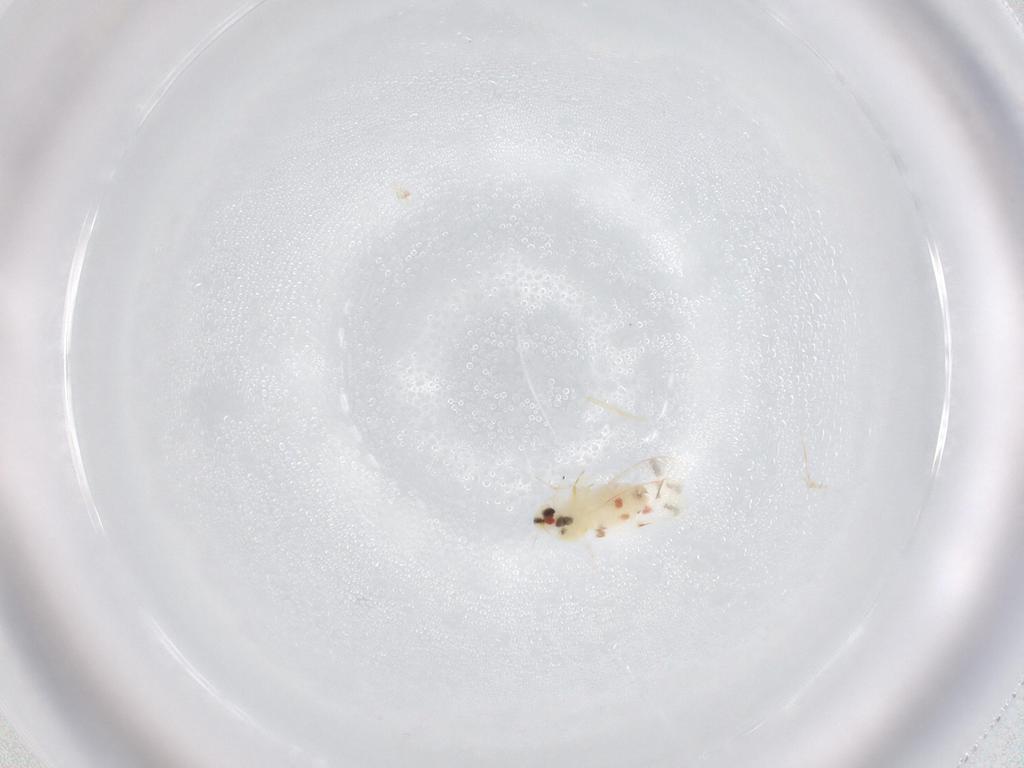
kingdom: Animalia
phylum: Arthropoda
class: Insecta
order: Hemiptera
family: Aleyrodidae
